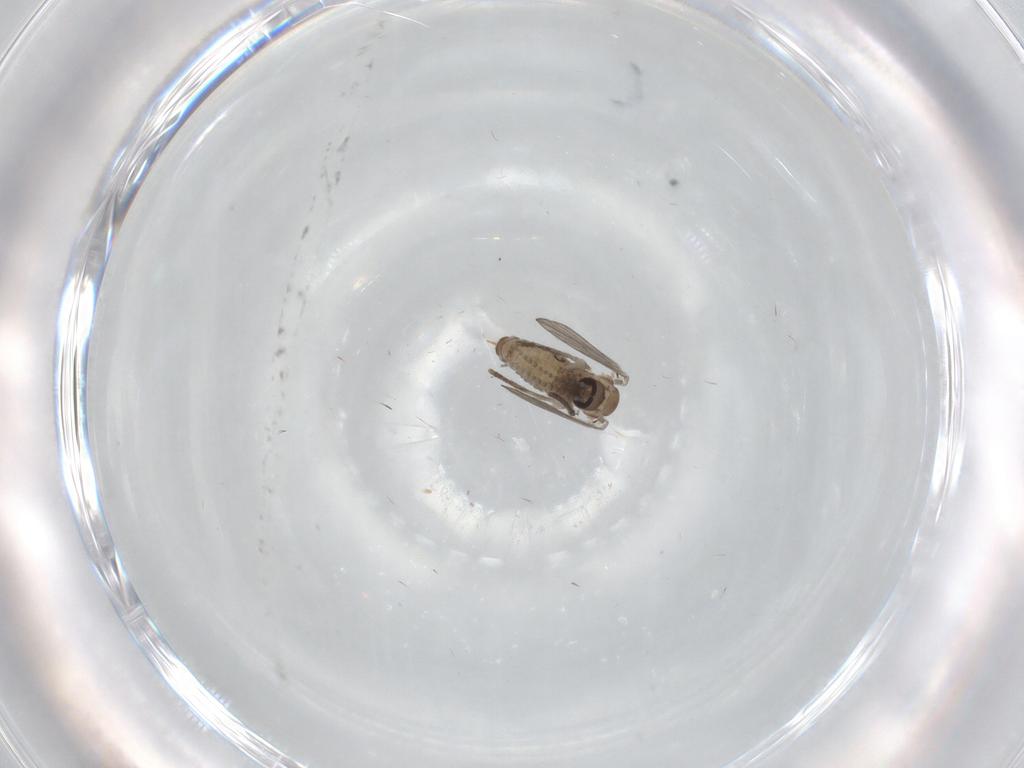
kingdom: Animalia
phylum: Arthropoda
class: Insecta
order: Diptera
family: Psychodidae
